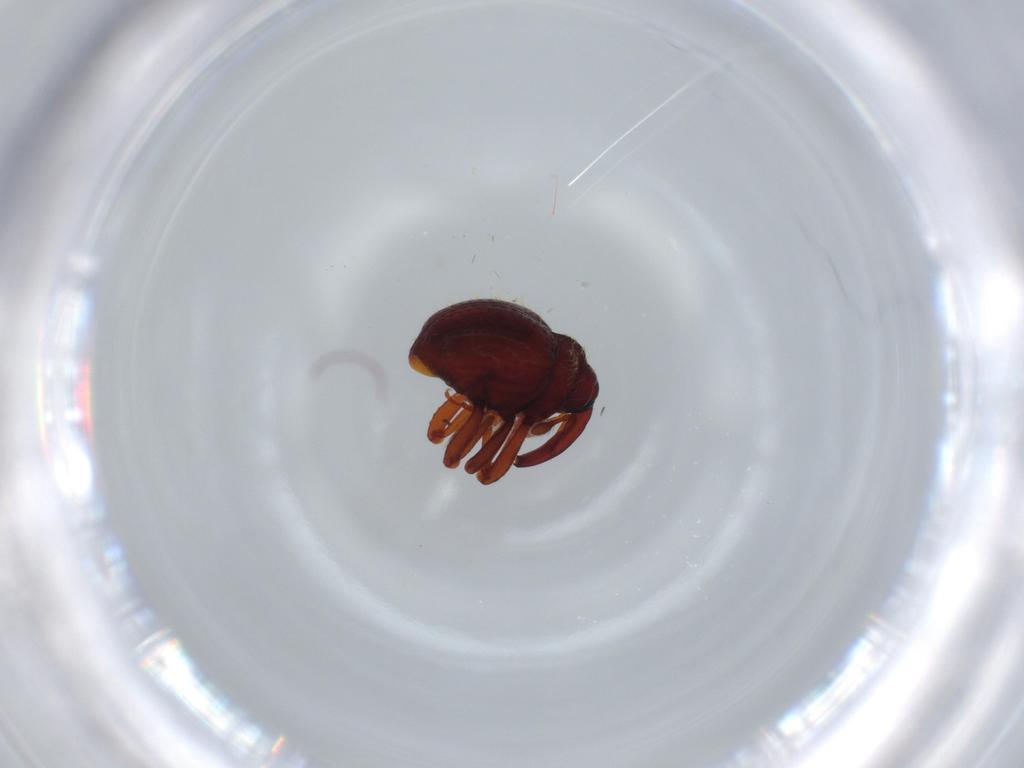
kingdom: Animalia
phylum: Arthropoda
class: Insecta
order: Coleoptera
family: Curculionidae
